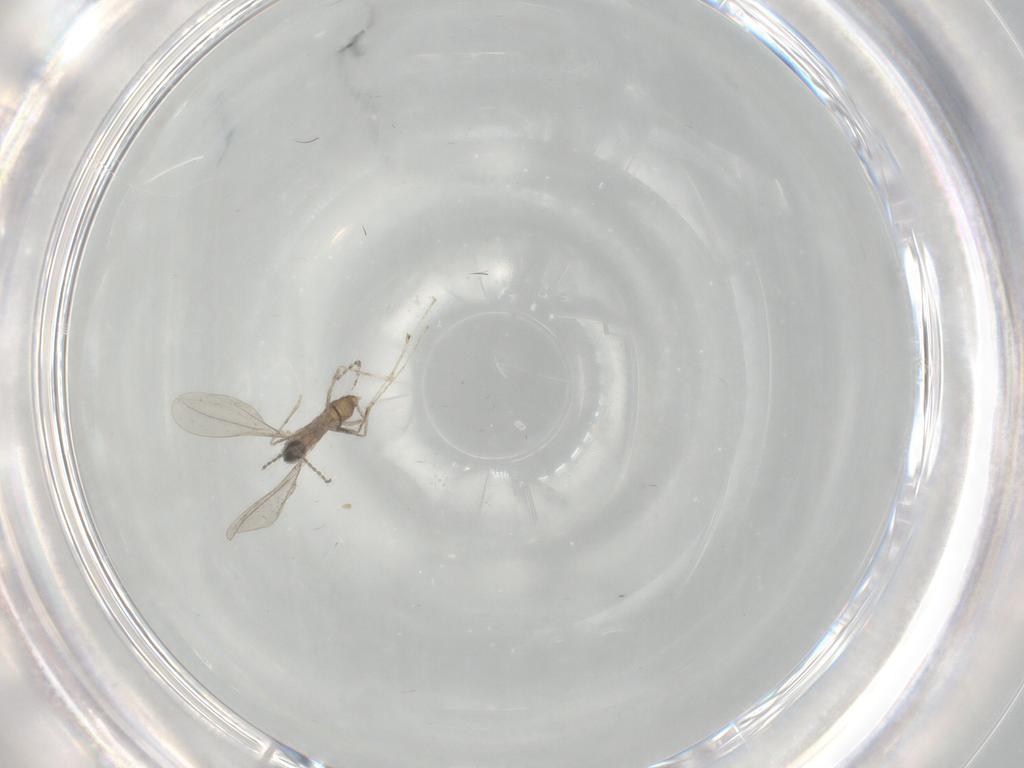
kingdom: Animalia
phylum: Arthropoda
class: Insecta
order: Diptera
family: Cecidomyiidae
